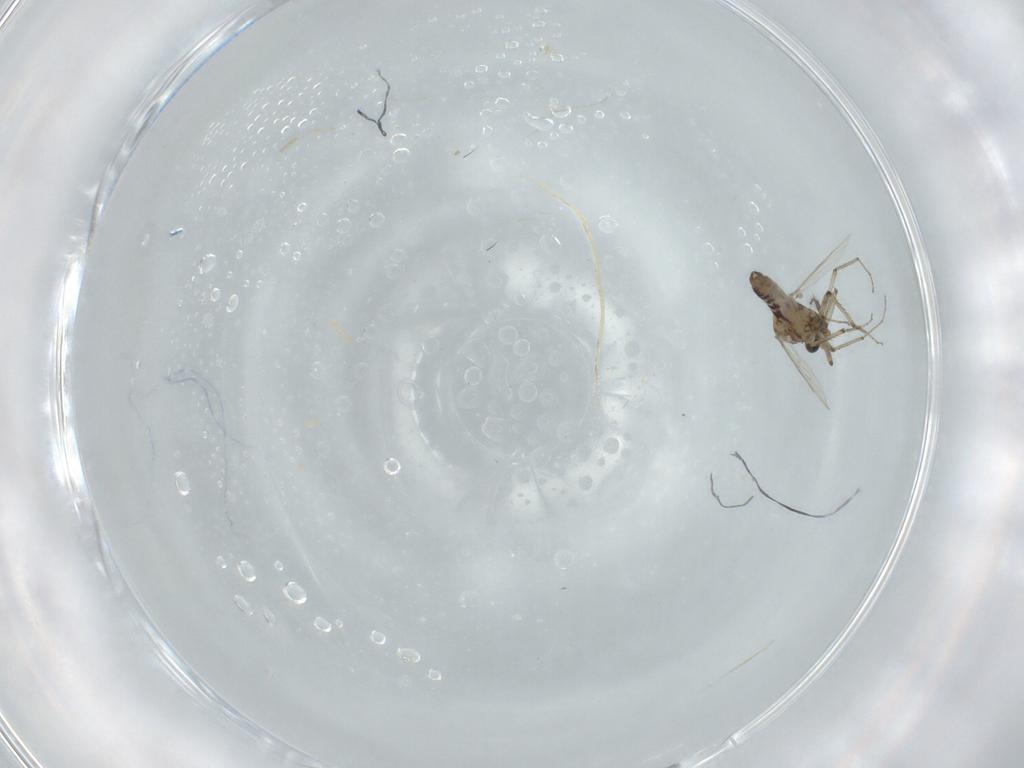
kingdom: Animalia
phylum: Arthropoda
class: Insecta
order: Diptera
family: Ceratopogonidae
